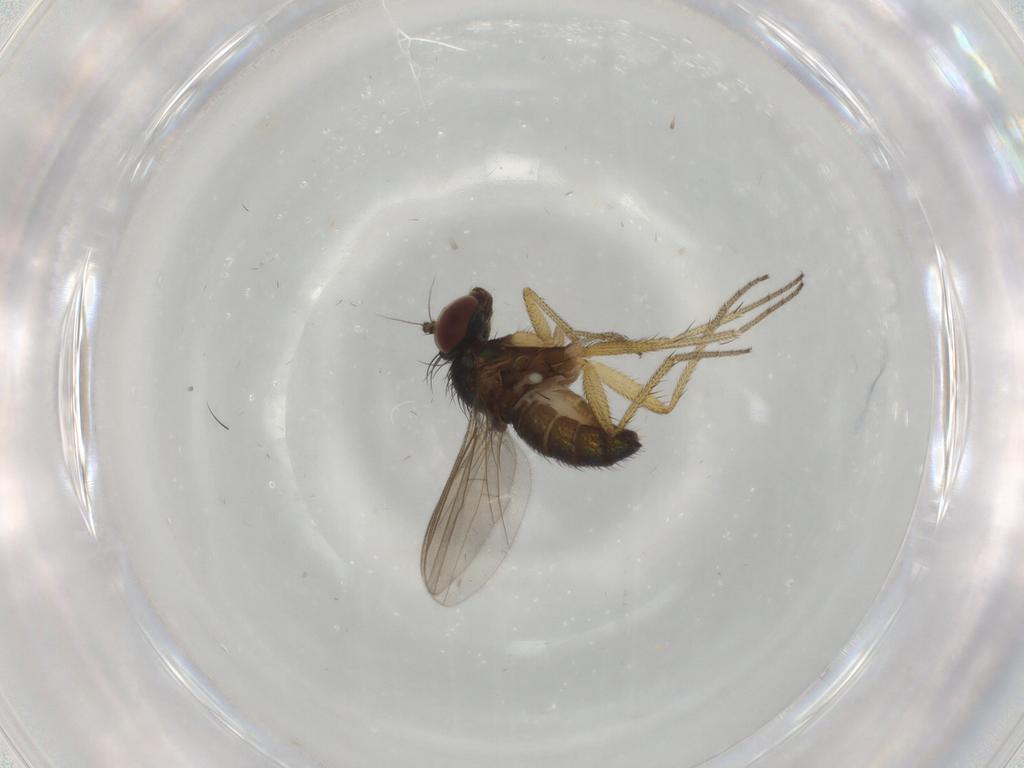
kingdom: Animalia
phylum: Arthropoda
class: Insecta
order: Diptera
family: Dolichopodidae
